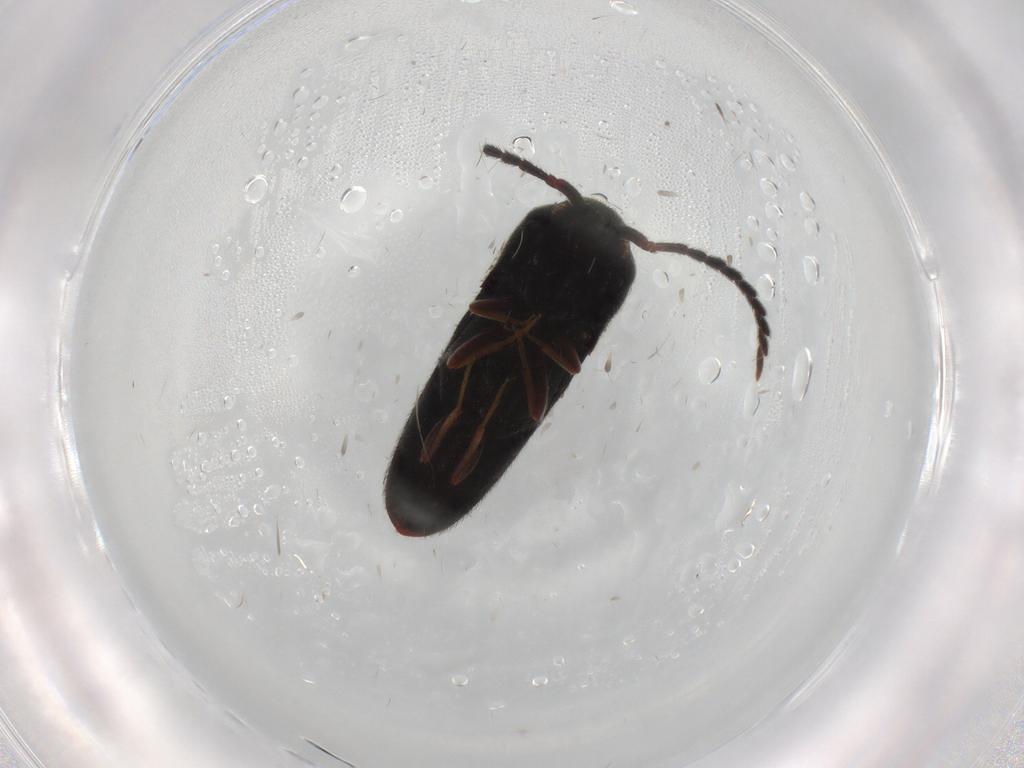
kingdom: Animalia
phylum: Arthropoda
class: Insecta
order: Coleoptera
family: Eucnemidae
